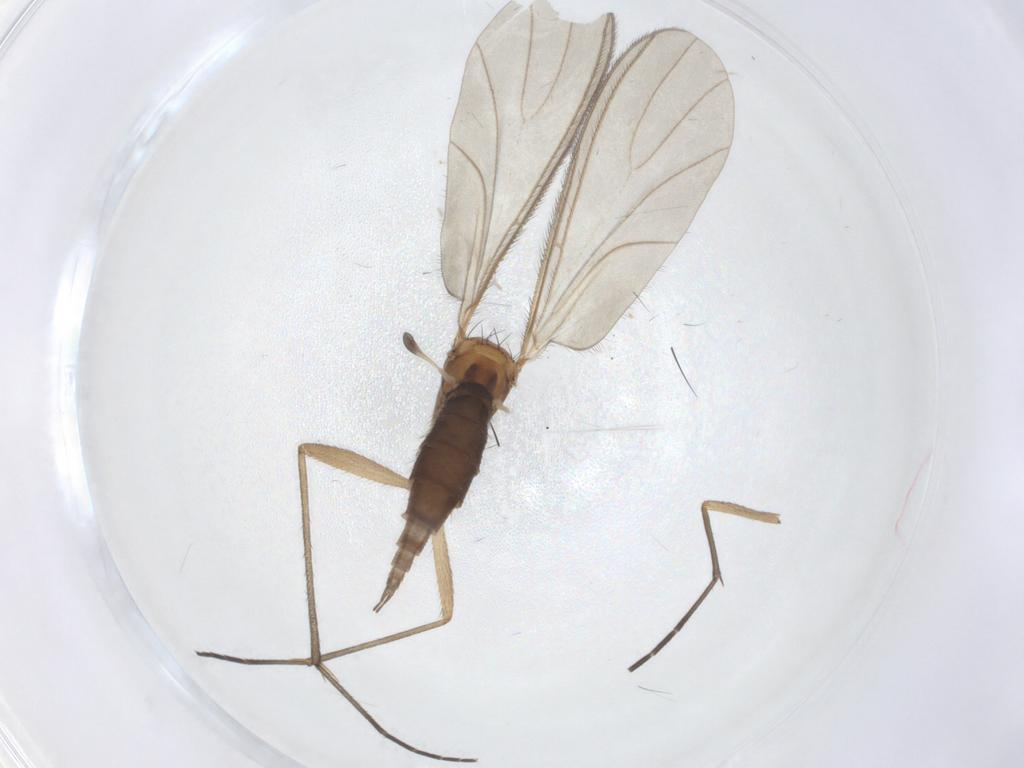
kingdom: Animalia
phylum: Arthropoda
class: Insecta
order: Diptera
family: Sciaridae
